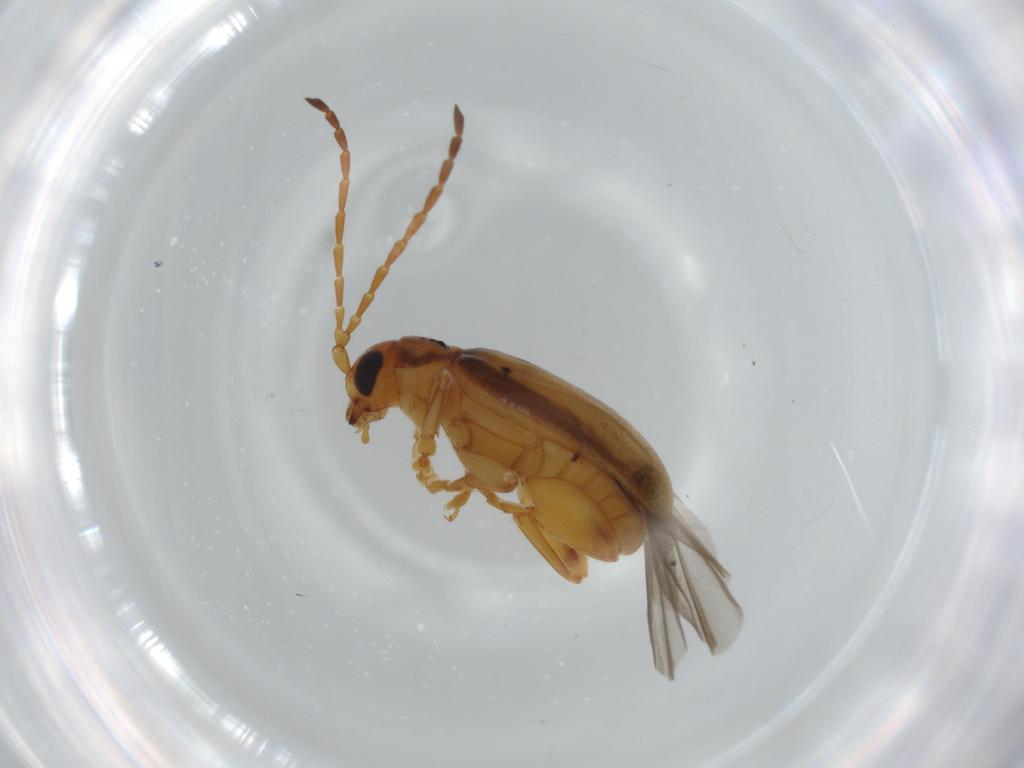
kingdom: Animalia
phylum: Arthropoda
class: Insecta
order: Coleoptera
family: Chrysomelidae
